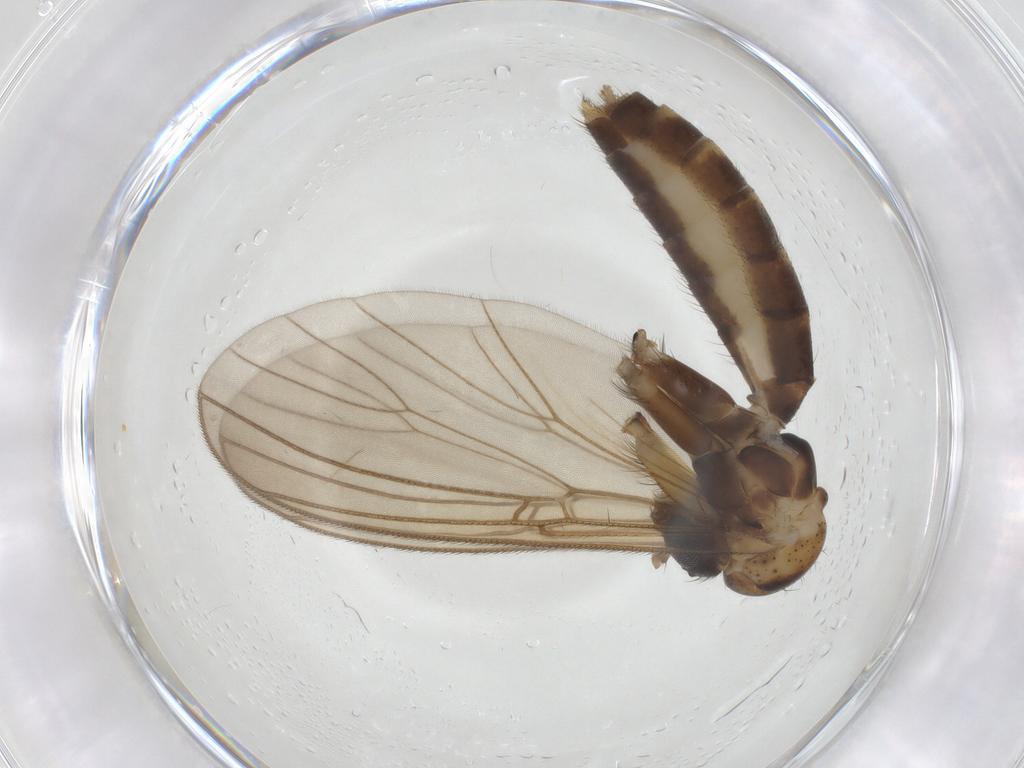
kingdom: Animalia
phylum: Arthropoda
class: Insecta
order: Diptera
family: Mycetophilidae
